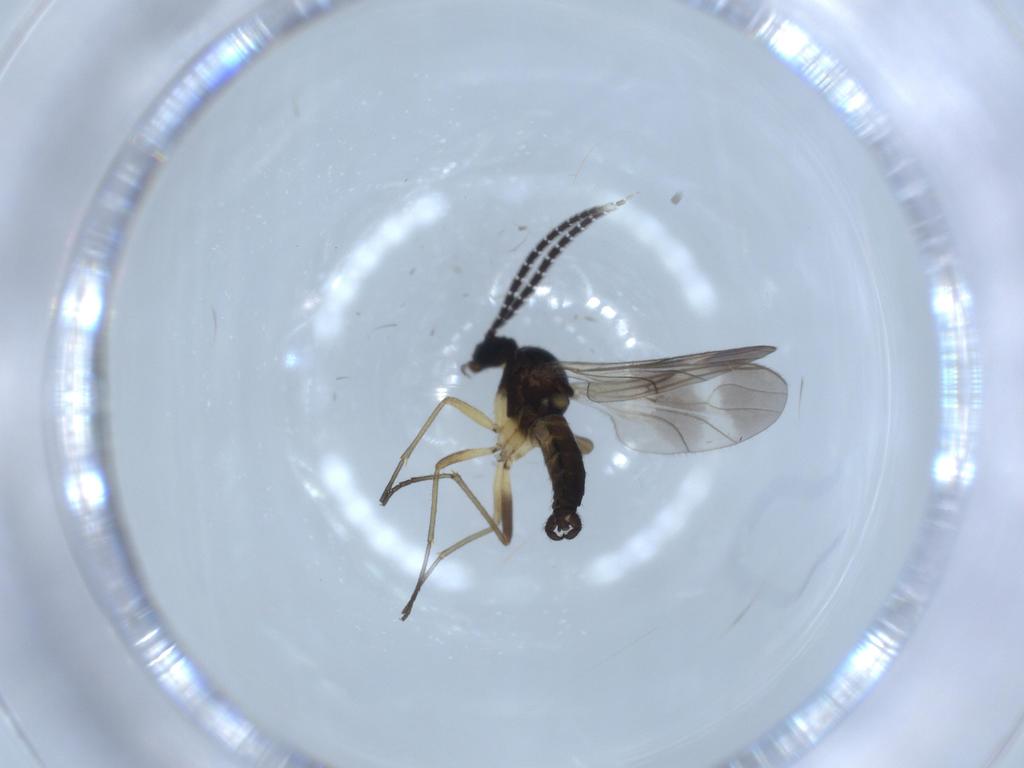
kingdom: Animalia
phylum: Arthropoda
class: Insecta
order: Diptera
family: Sciaridae
